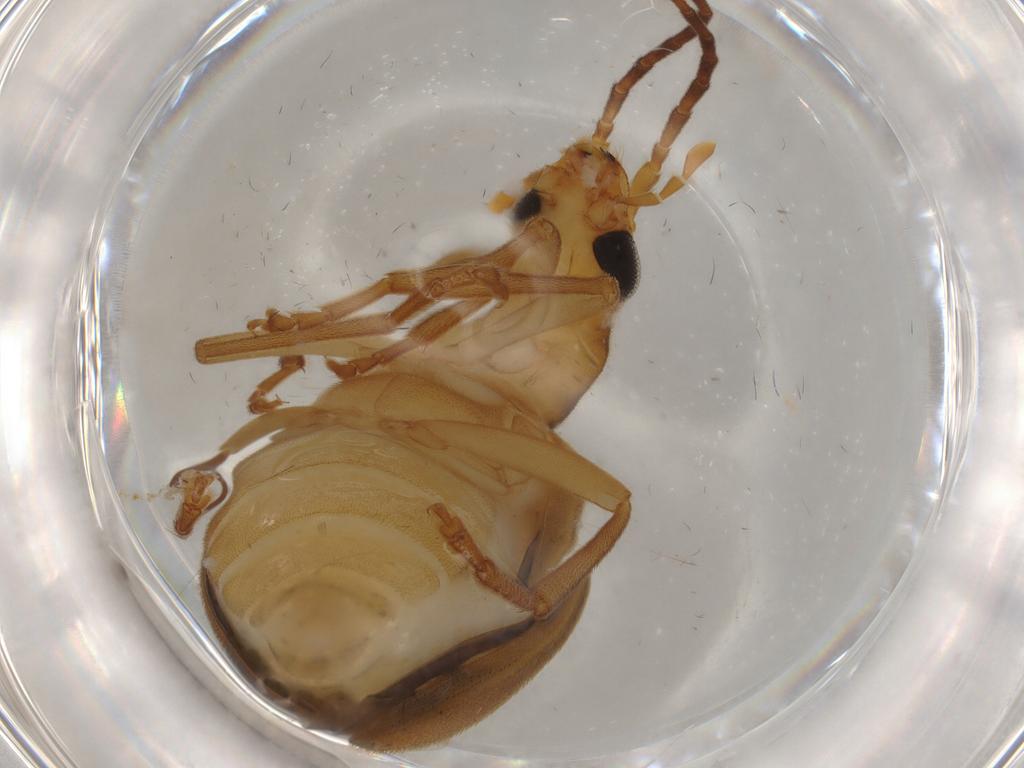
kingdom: Animalia
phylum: Arthropoda
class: Insecta
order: Coleoptera
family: Oedemeridae
